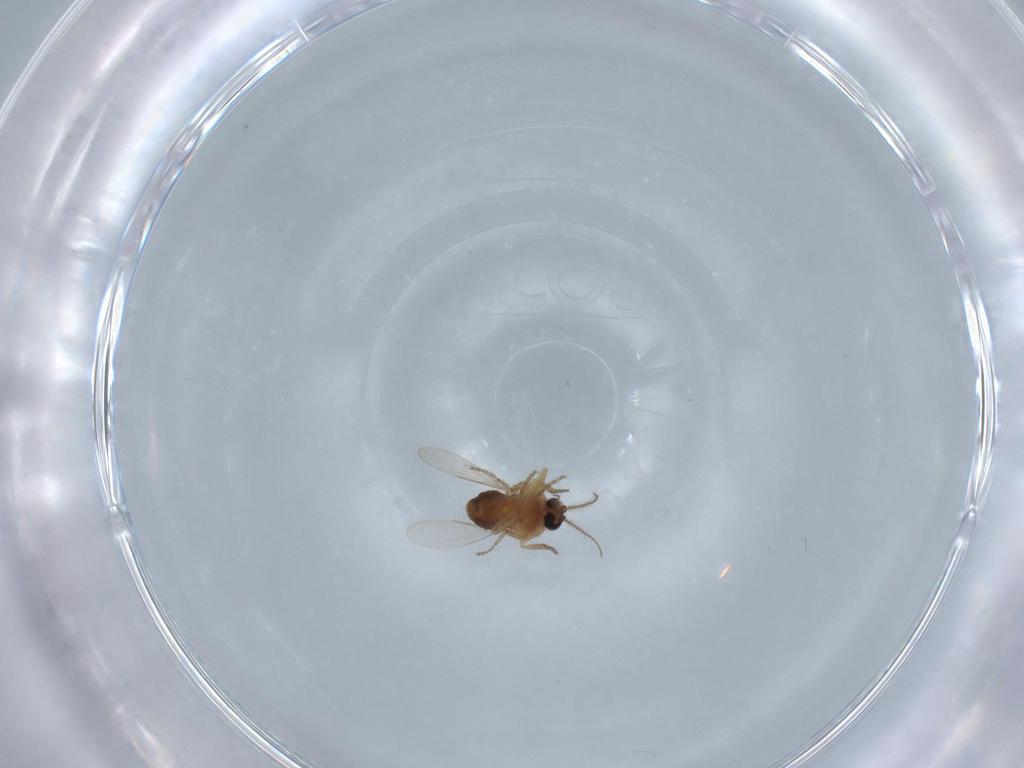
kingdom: Animalia
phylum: Arthropoda
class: Insecta
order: Diptera
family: Ceratopogonidae
